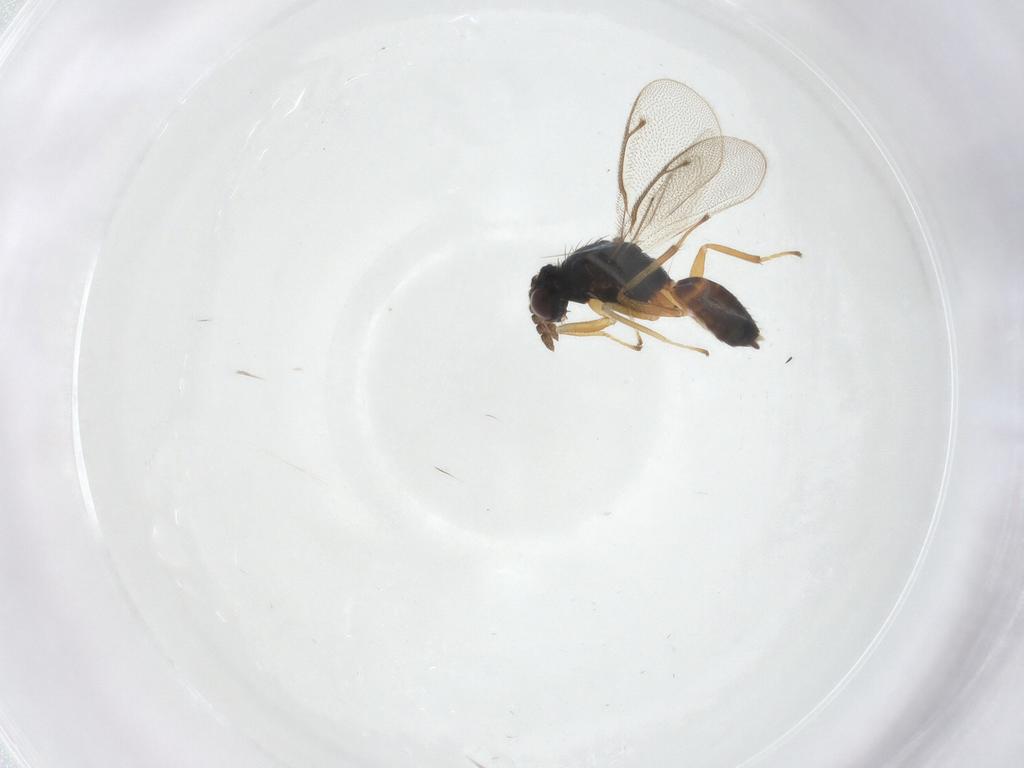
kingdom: Animalia
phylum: Arthropoda
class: Insecta
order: Hymenoptera
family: Eulophidae
